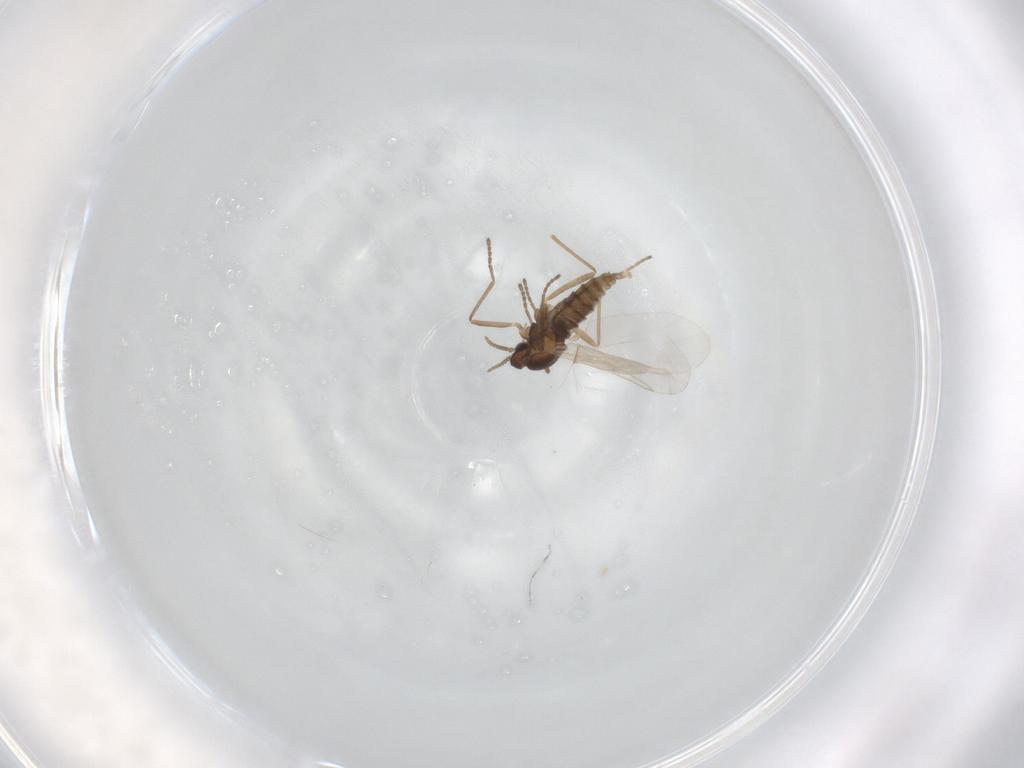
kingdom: Animalia
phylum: Arthropoda
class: Insecta
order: Diptera
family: Cecidomyiidae
